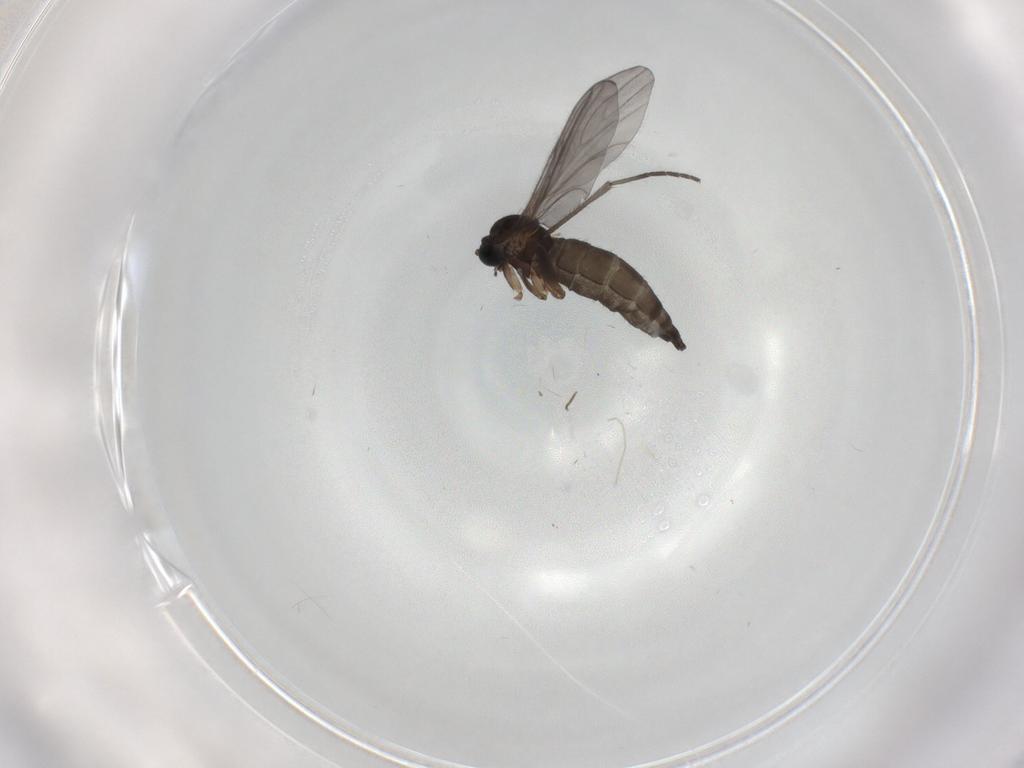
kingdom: Animalia
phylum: Arthropoda
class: Insecta
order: Diptera
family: Sciaridae
